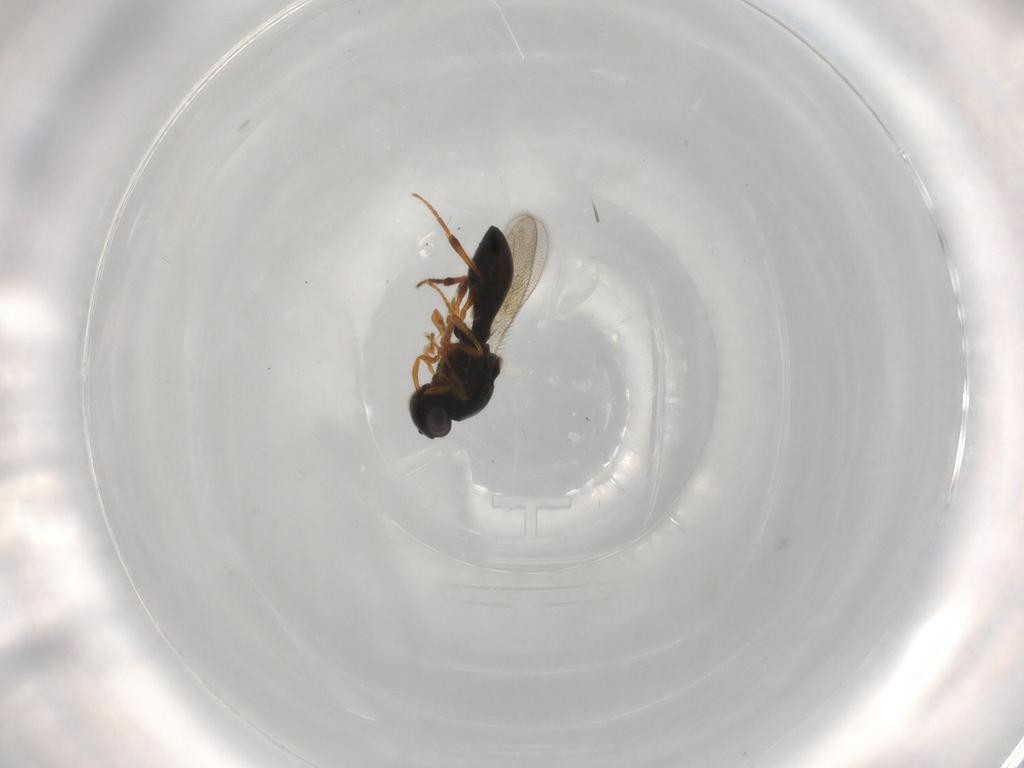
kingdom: Animalia
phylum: Arthropoda
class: Insecta
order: Hymenoptera
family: Platygastridae
